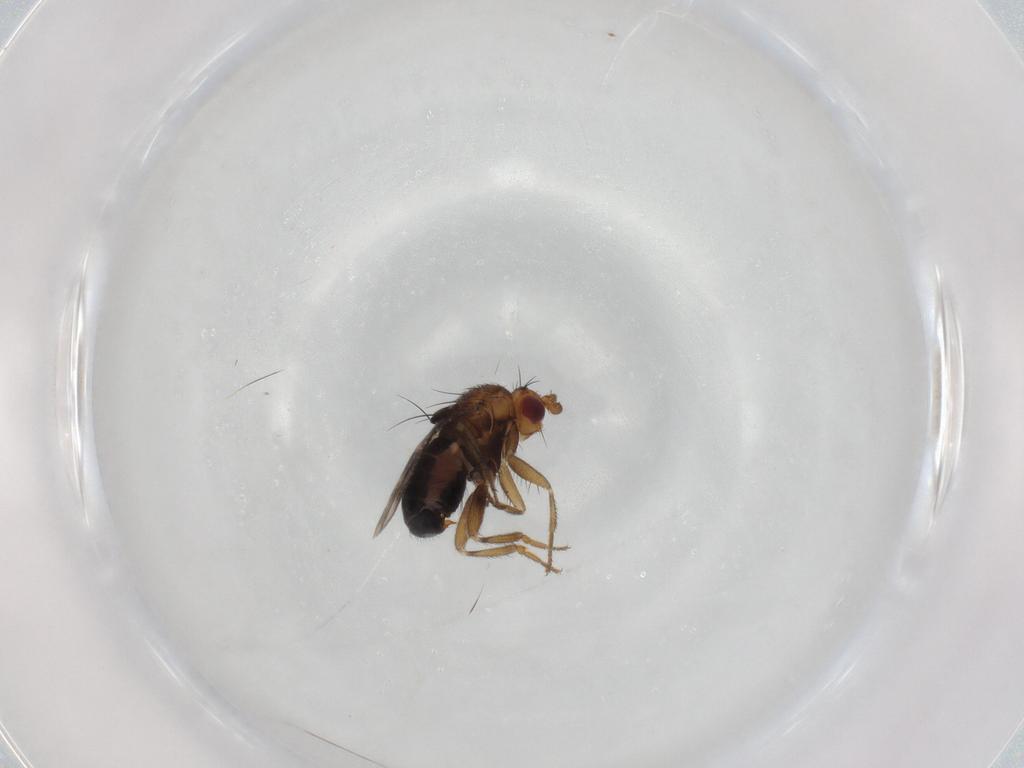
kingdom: Animalia
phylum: Arthropoda
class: Insecta
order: Diptera
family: Sphaeroceridae
